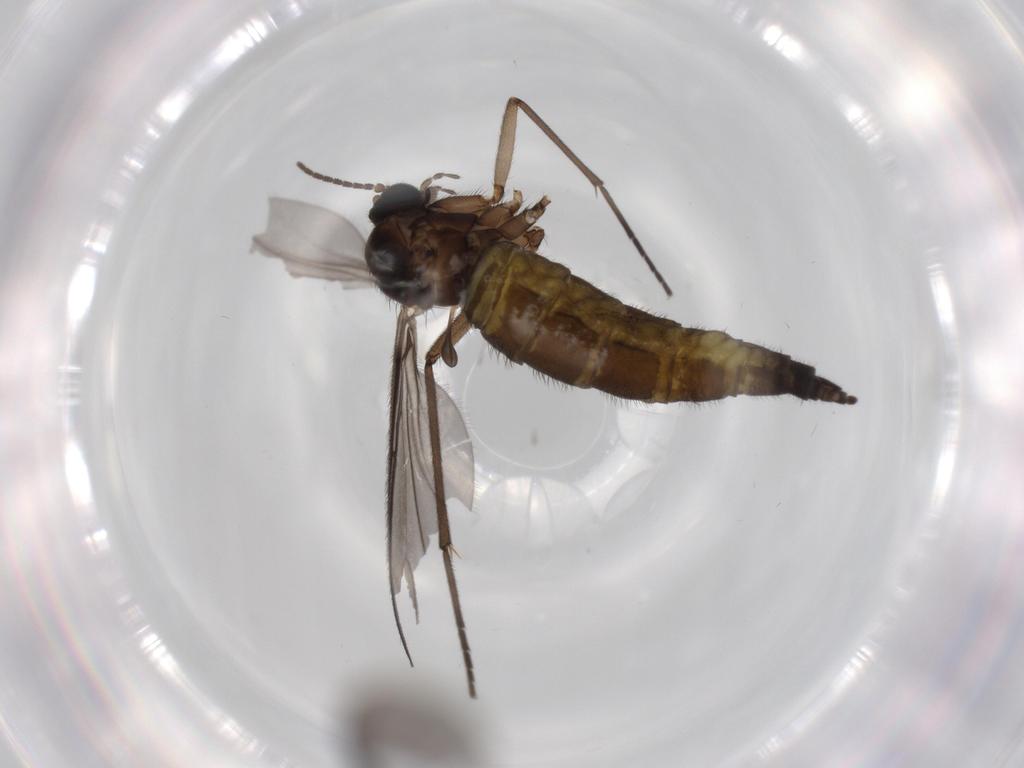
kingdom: Animalia
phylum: Arthropoda
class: Insecta
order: Diptera
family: Sciaridae
